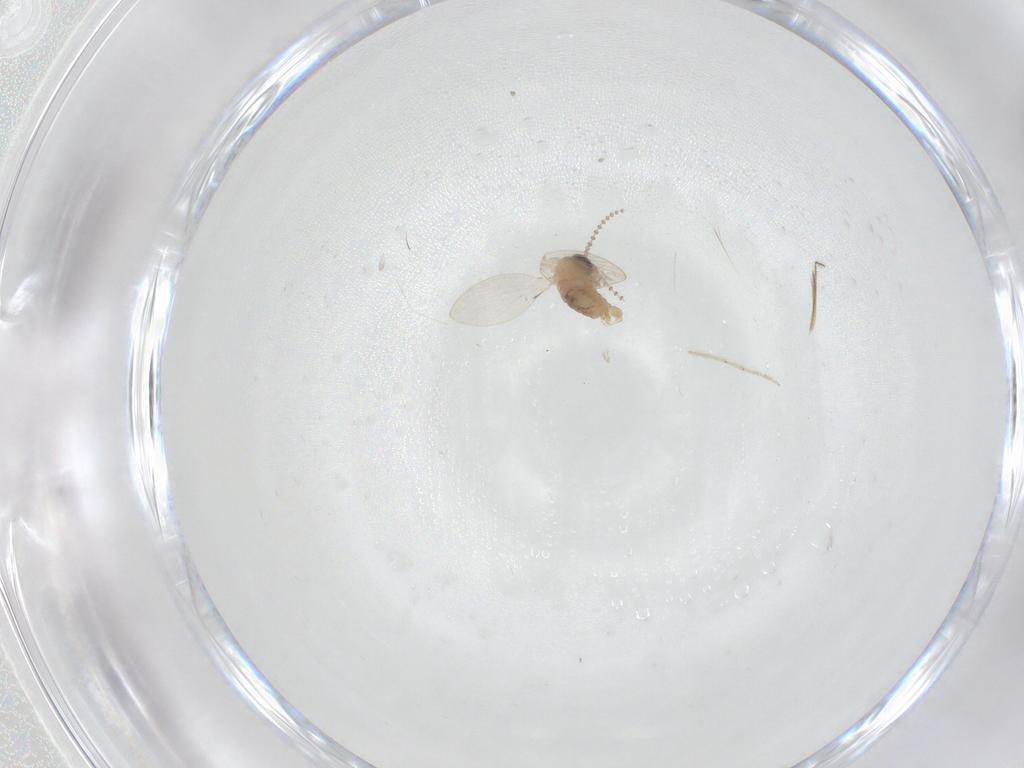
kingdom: Animalia
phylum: Arthropoda
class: Insecta
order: Diptera
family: Psychodidae
